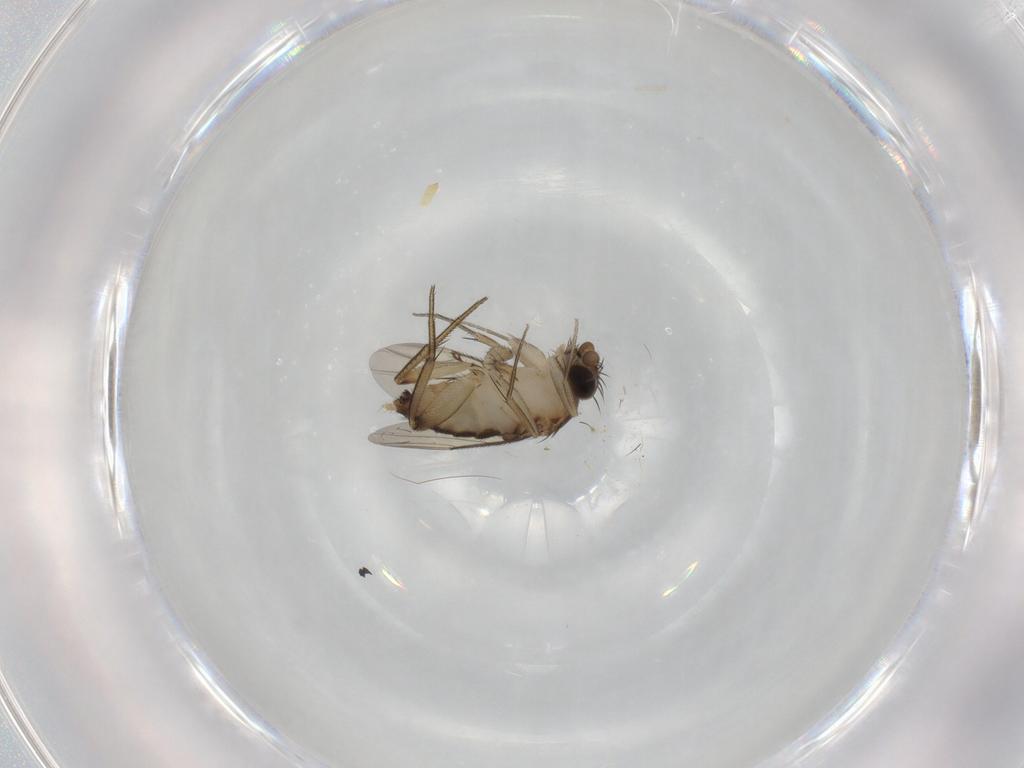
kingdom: Animalia
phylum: Arthropoda
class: Insecta
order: Diptera
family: Phoridae
